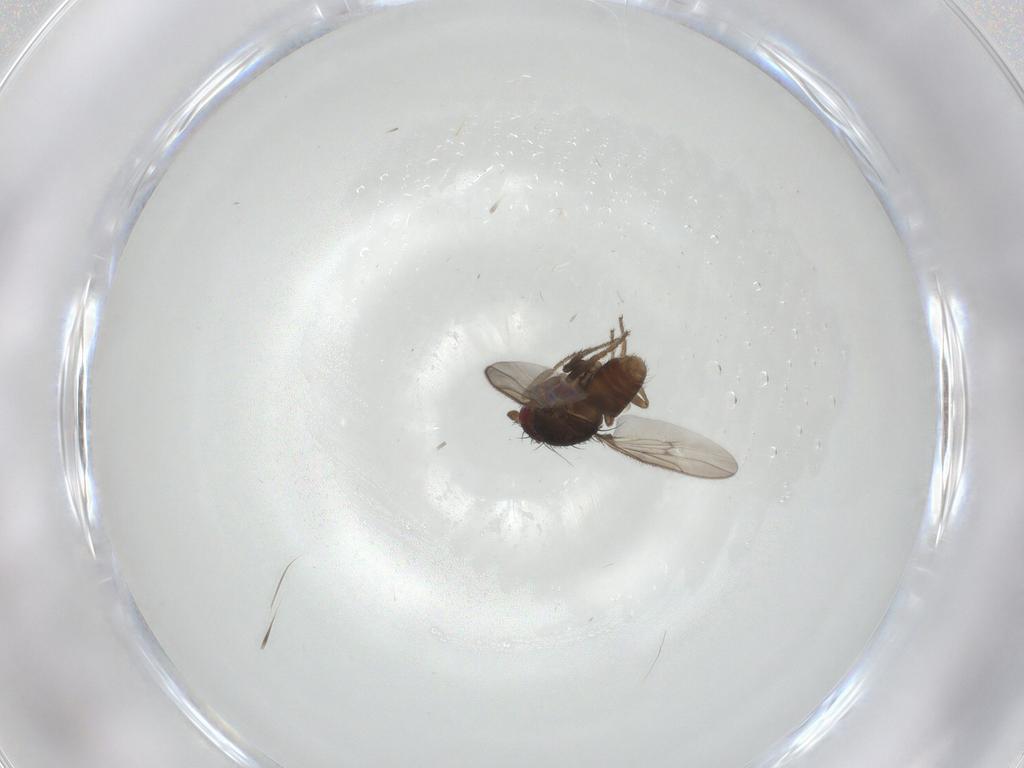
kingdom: Animalia
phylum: Arthropoda
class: Insecta
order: Diptera
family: Sphaeroceridae
